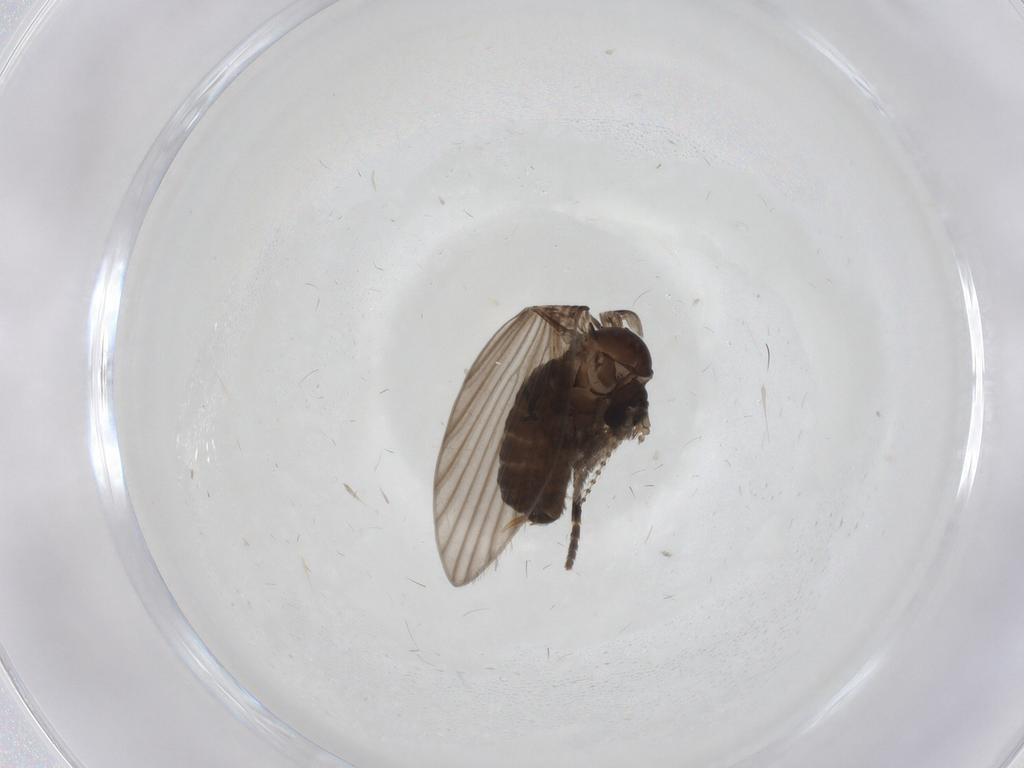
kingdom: Animalia
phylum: Arthropoda
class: Insecta
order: Diptera
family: Psychodidae
